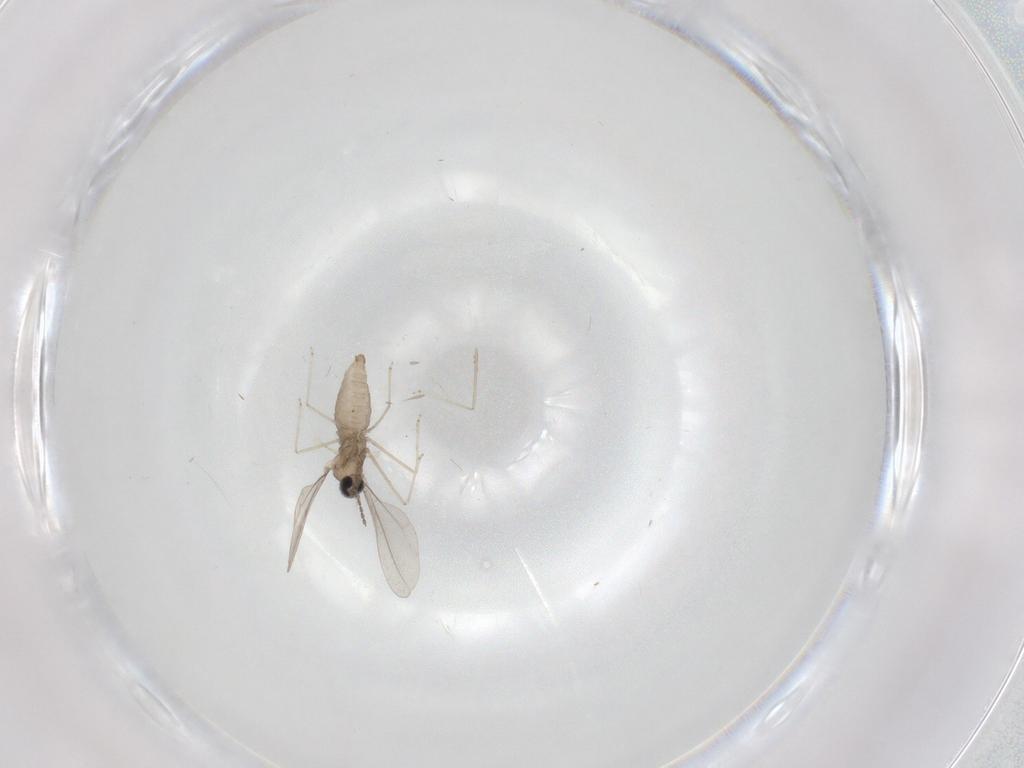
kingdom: Animalia
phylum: Arthropoda
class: Insecta
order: Diptera
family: Cecidomyiidae
